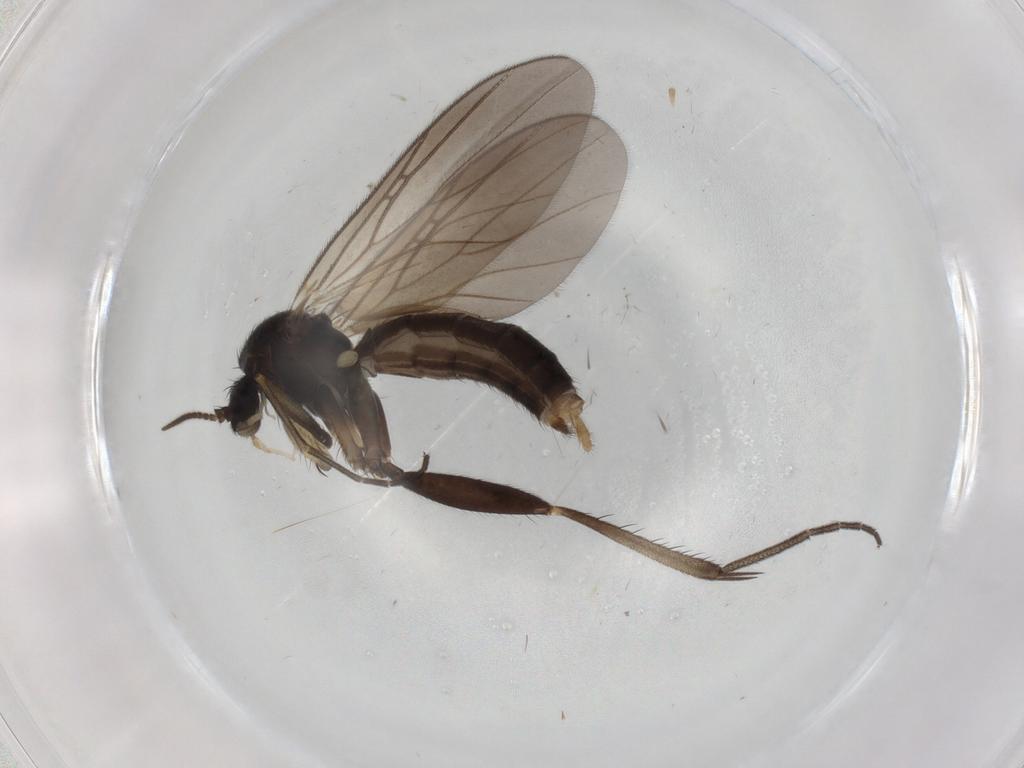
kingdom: Animalia
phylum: Arthropoda
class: Insecta
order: Diptera
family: Mycetophilidae
